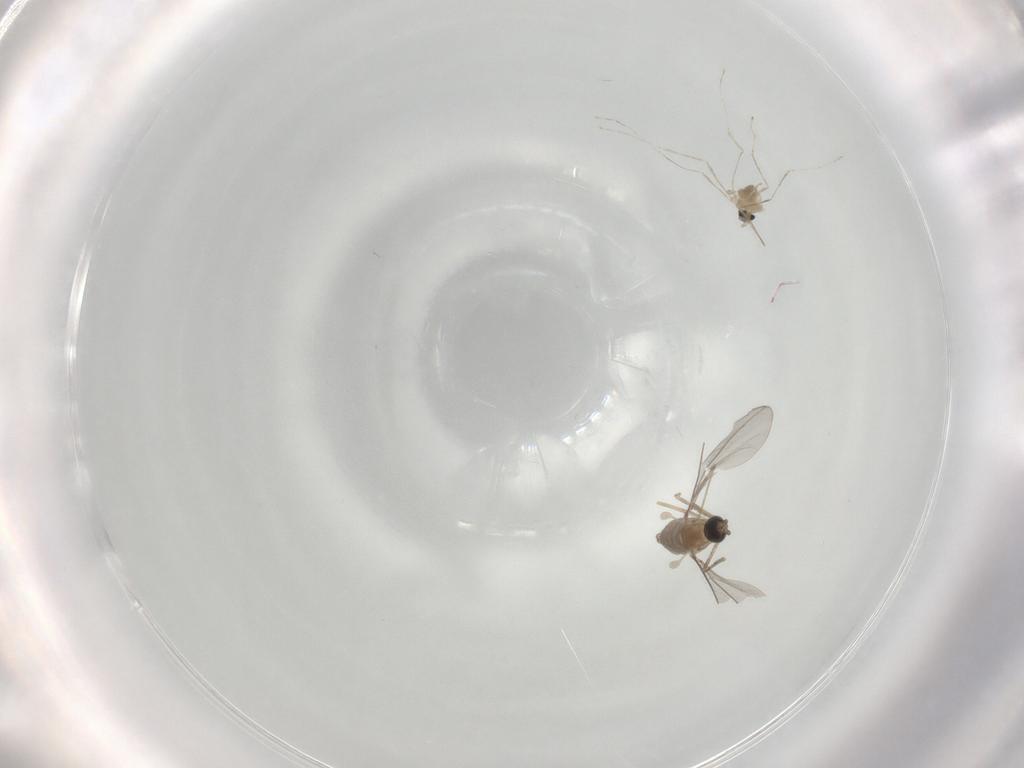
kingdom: Animalia
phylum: Arthropoda
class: Insecta
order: Diptera
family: Cecidomyiidae
